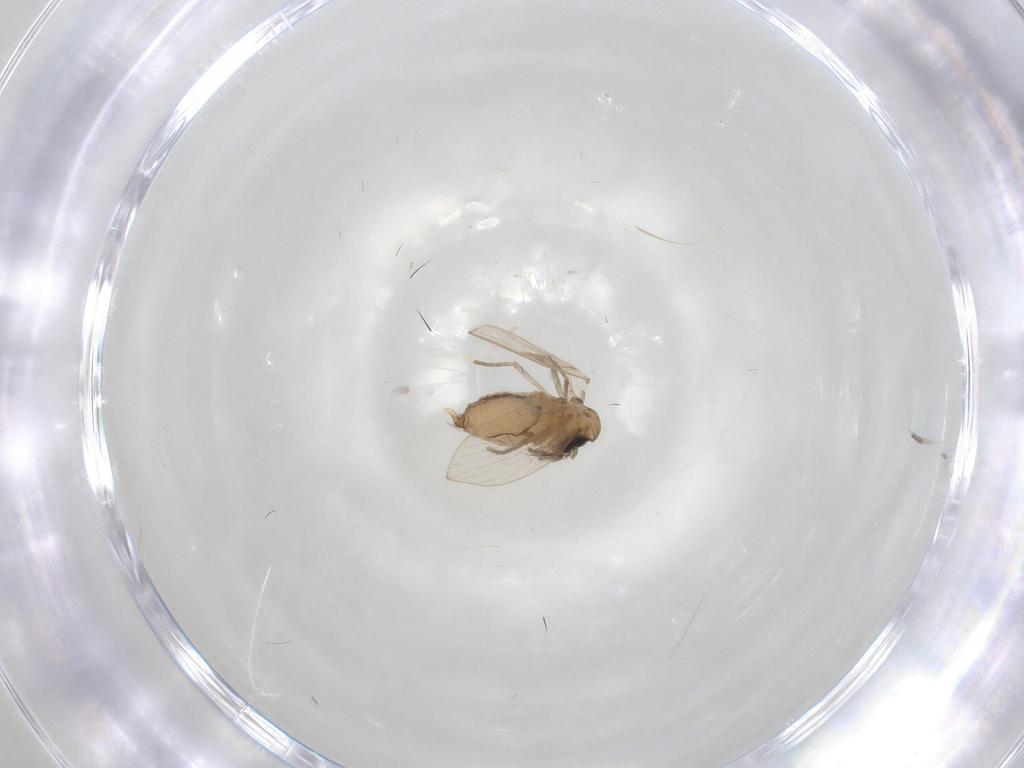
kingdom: Animalia
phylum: Arthropoda
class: Insecta
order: Diptera
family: Psychodidae
